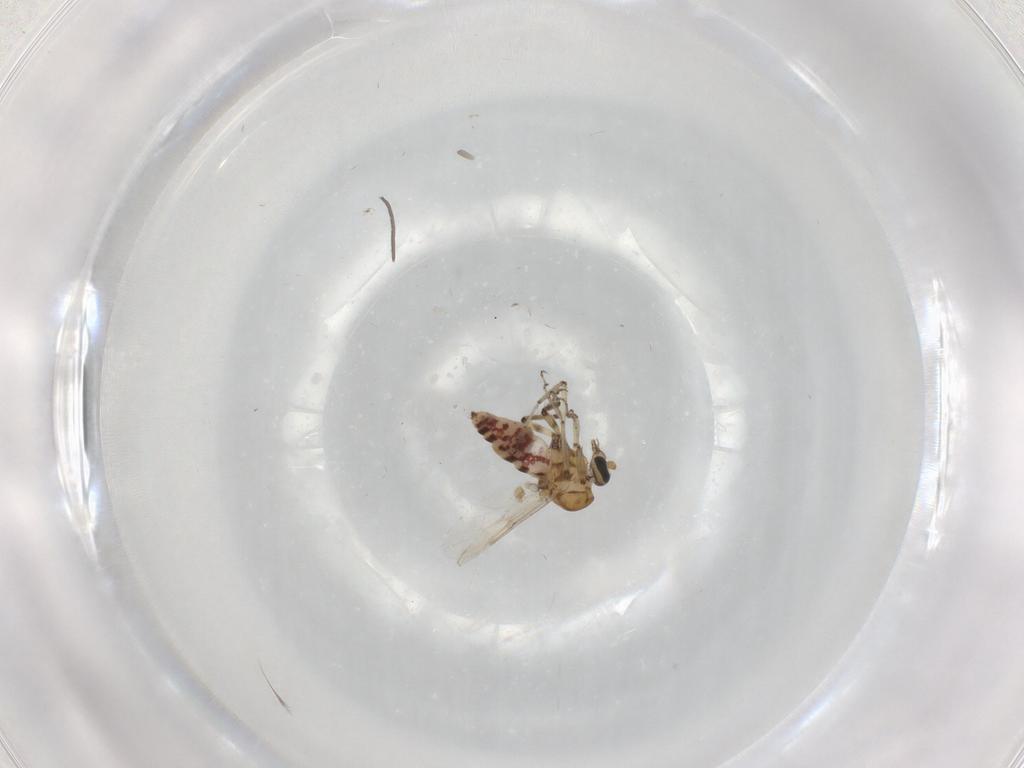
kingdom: Animalia
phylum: Arthropoda
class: Insecta
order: Diptera
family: Ceratopogonidae
